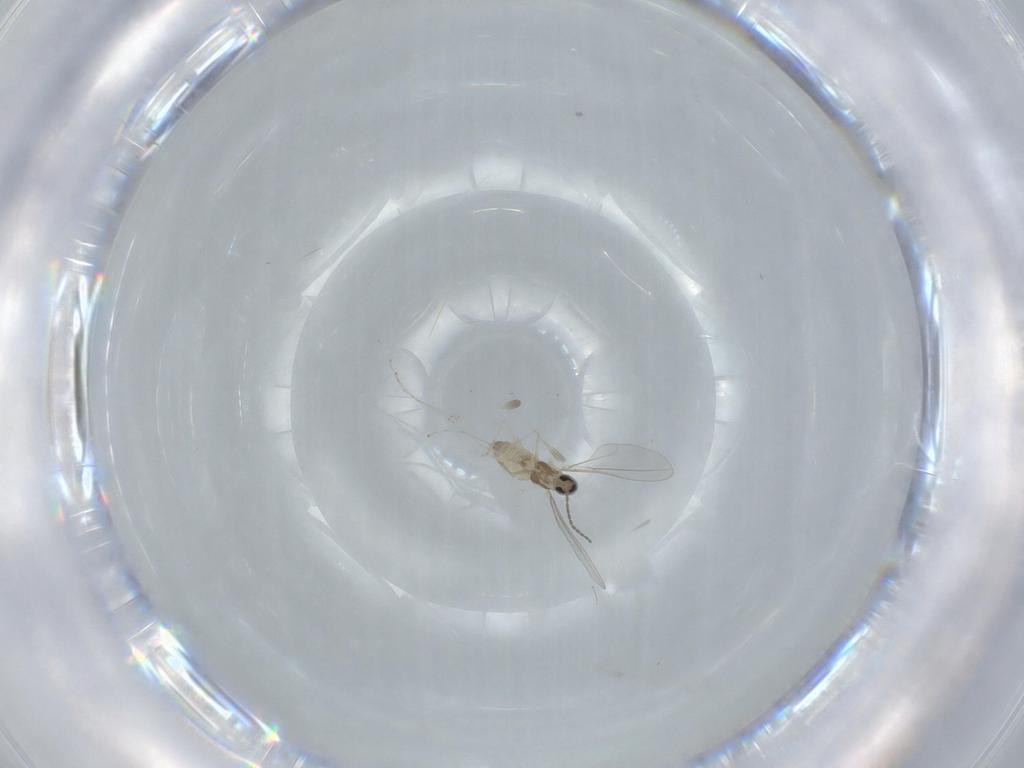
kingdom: Animalia
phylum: Arthropoda
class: Insecta
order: Diptera
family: Cecidomyiidae
